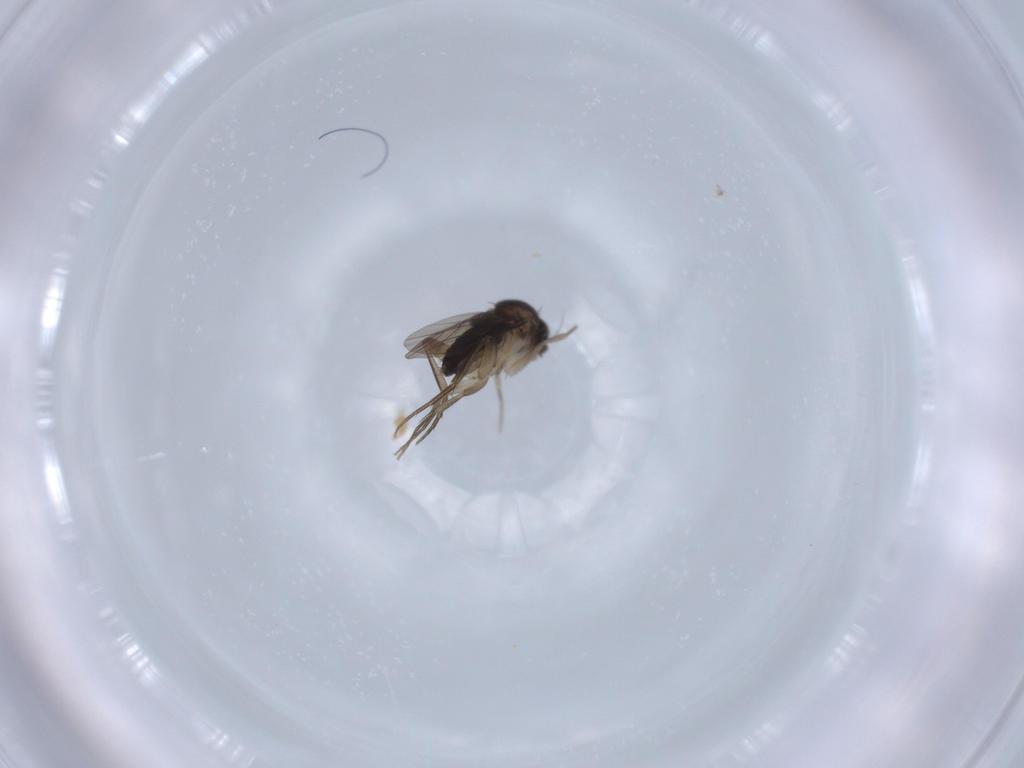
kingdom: Animalia
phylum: Arthropoda
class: Insecta
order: Diptera
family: Phoridae
